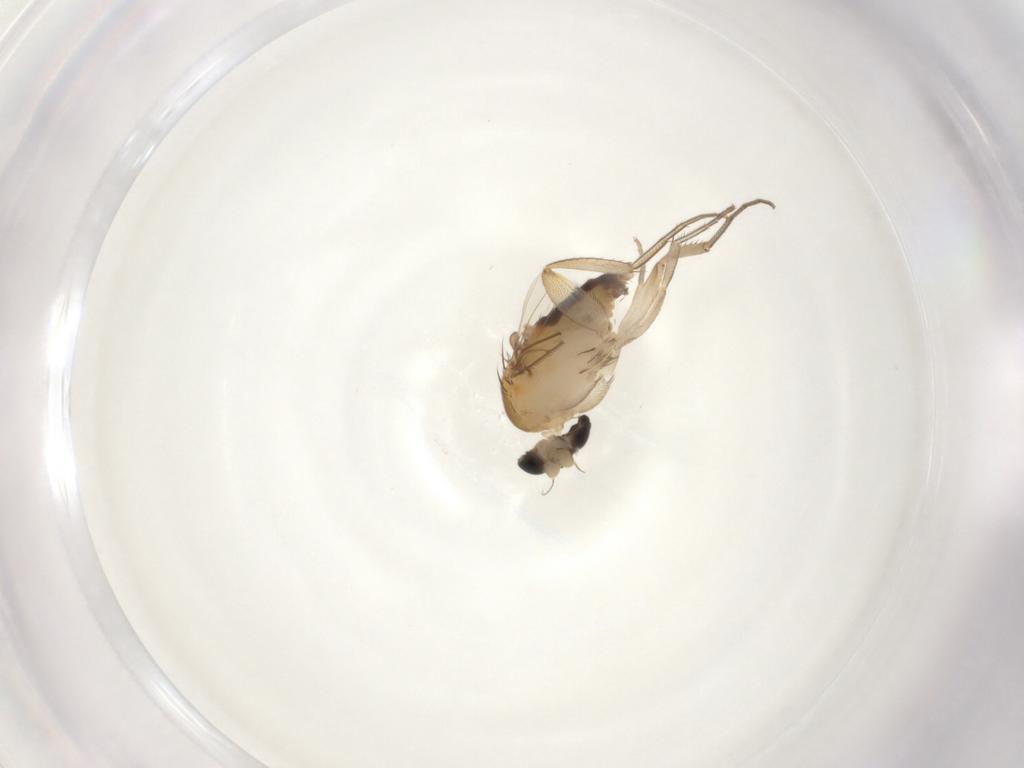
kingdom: Animalia
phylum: Arthropoda
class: Insecta
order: Diptera
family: Phoridae
